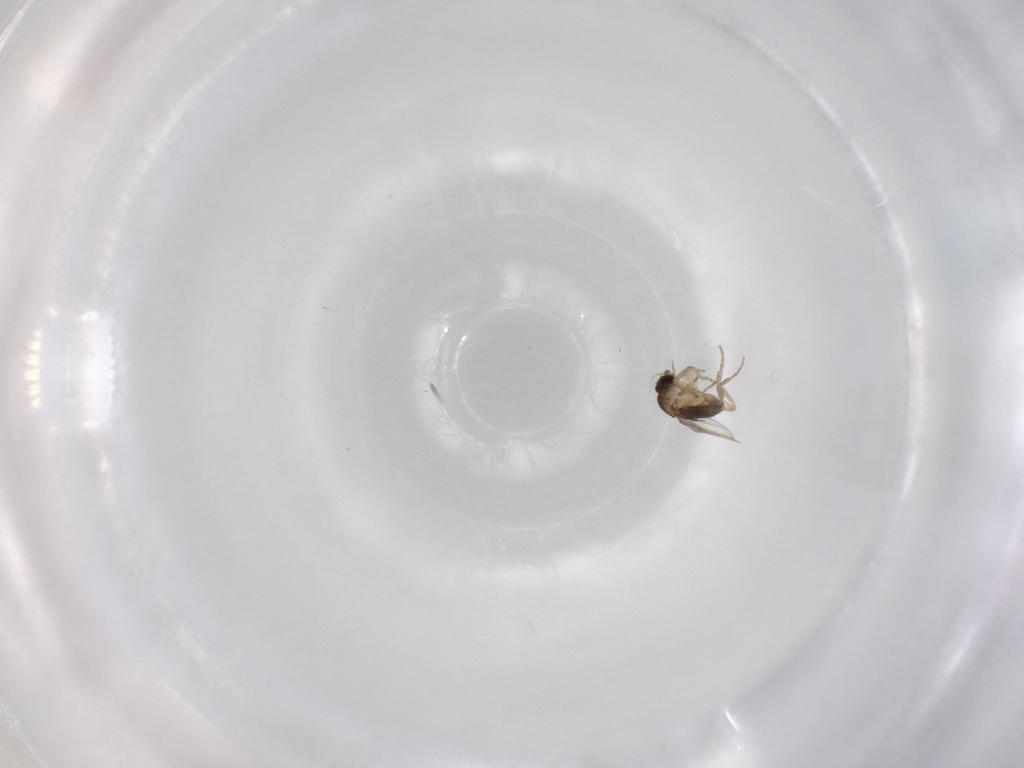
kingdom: Animalia
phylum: Arthropoda
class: Insecta
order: Diptera
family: Phoridae
